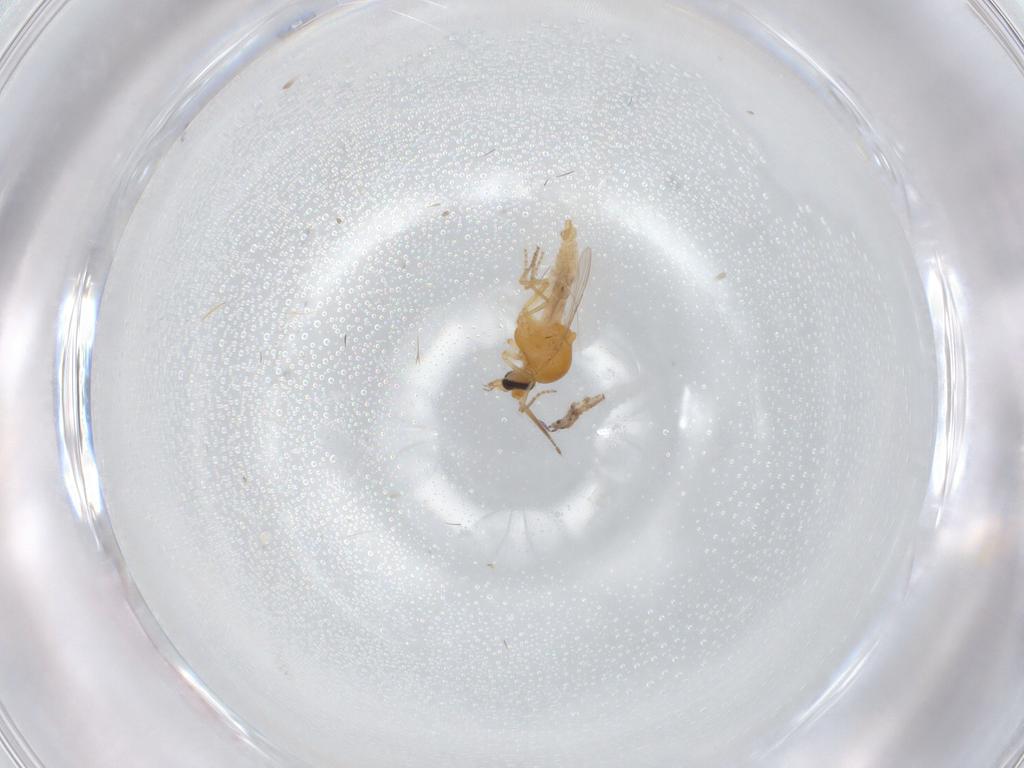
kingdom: Animalia
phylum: Arthropoda
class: Insecta
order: Diptera
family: Ceratopogonidae
